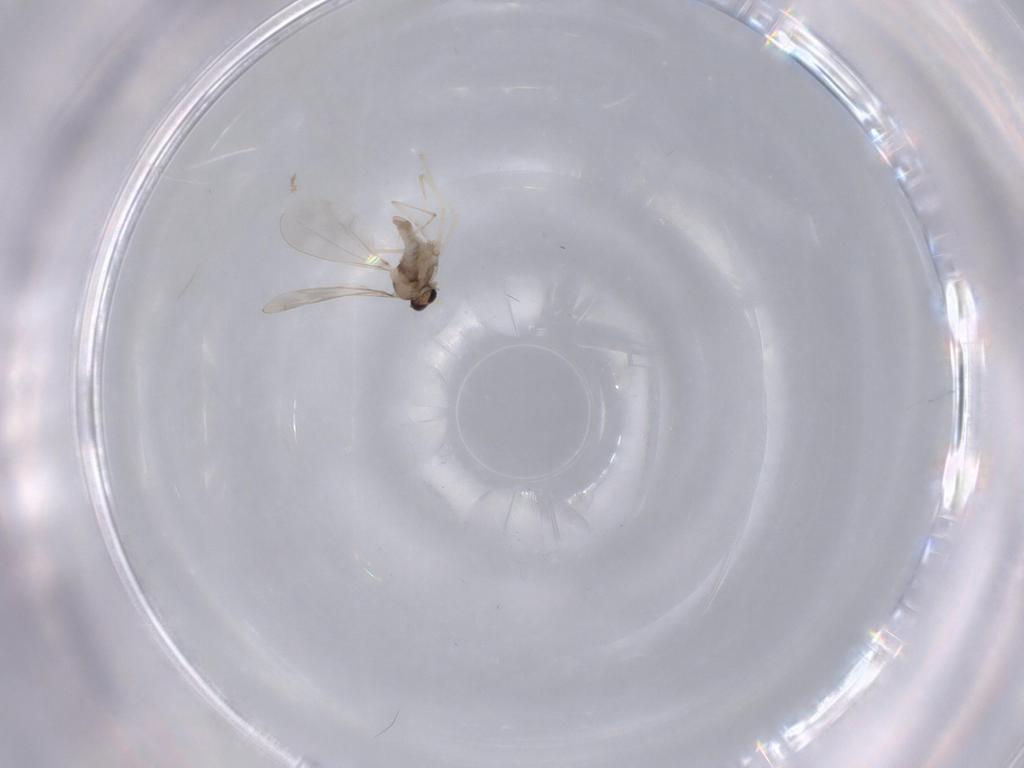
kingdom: Animalia
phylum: Arthropoda
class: Insecta
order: Diptera
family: Cecidomyiidae
